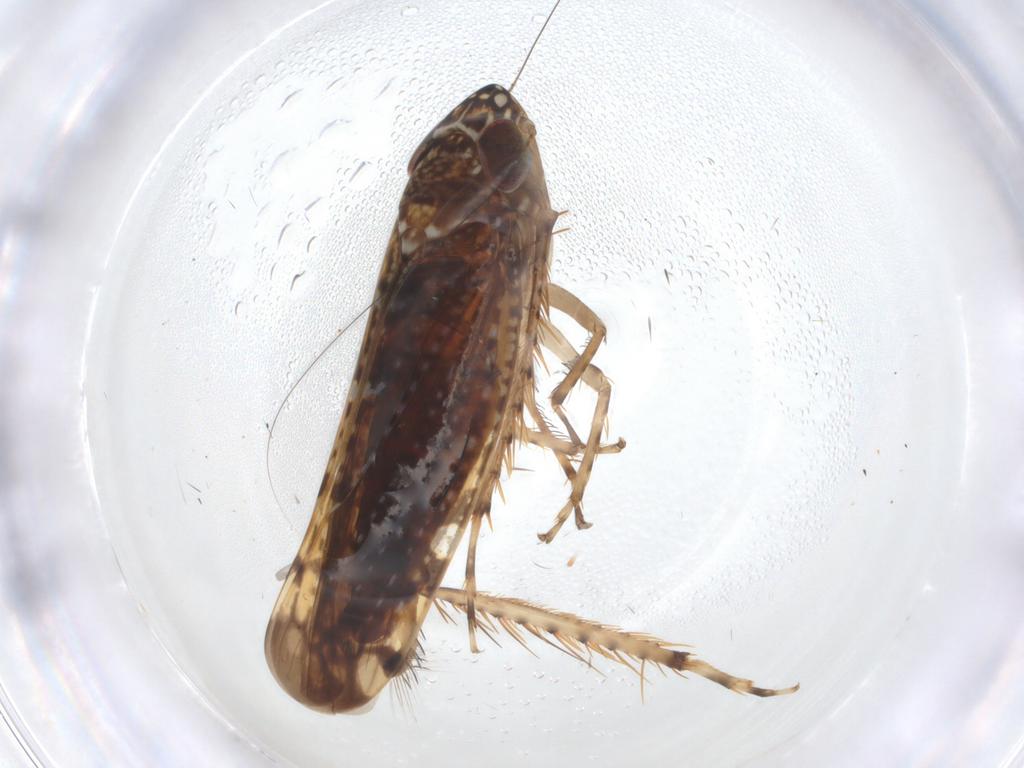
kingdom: Animalia
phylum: Arthropoda
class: Insecta
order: Hemiptera
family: Cicadellidae
